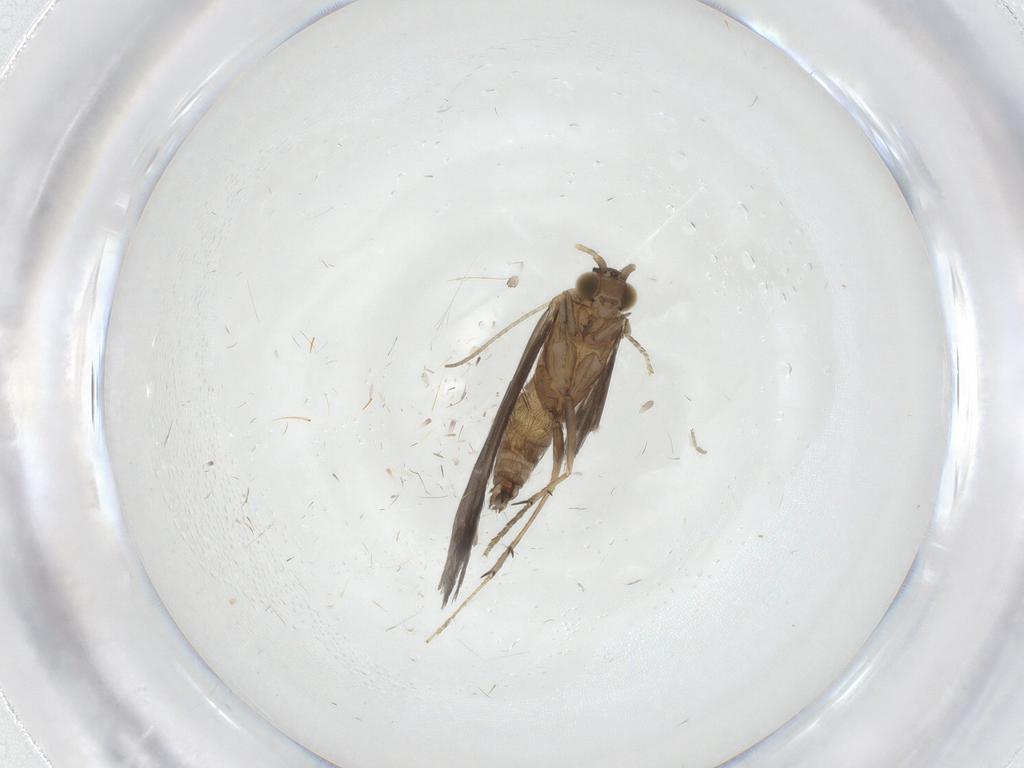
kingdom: Animalia
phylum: Arthropoda
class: Insecta
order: Trichoptera
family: Glossosomatidae
